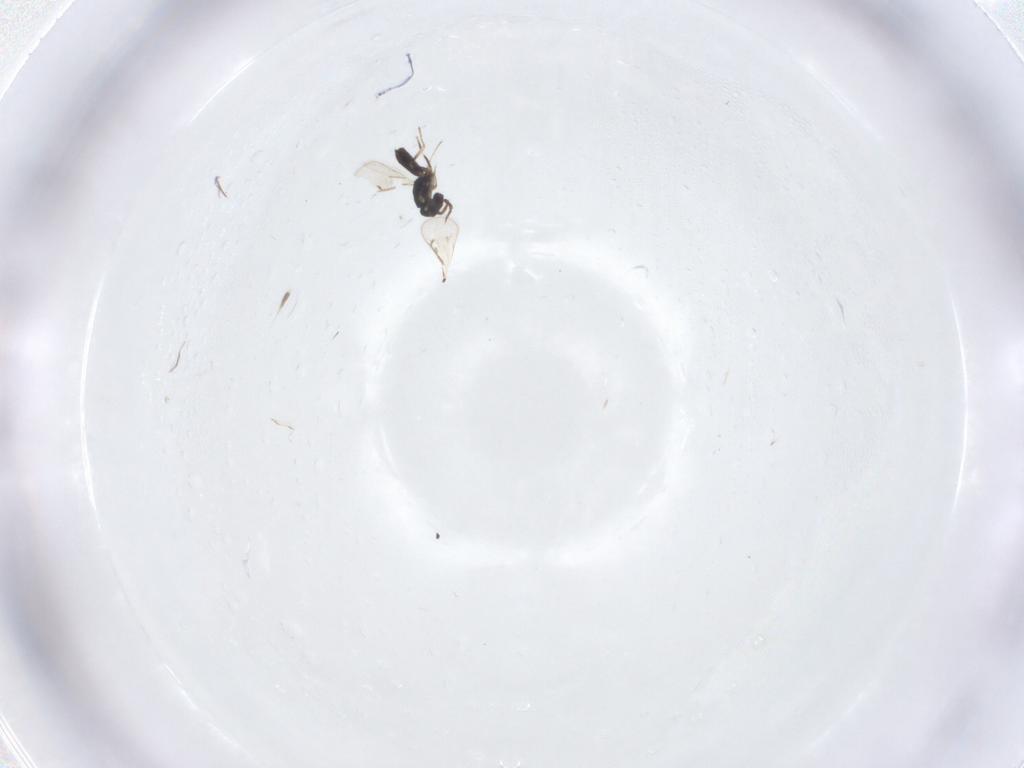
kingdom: Animalia
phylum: Arthropoda
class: Insecta
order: Hymenoptera
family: Eulophidae
